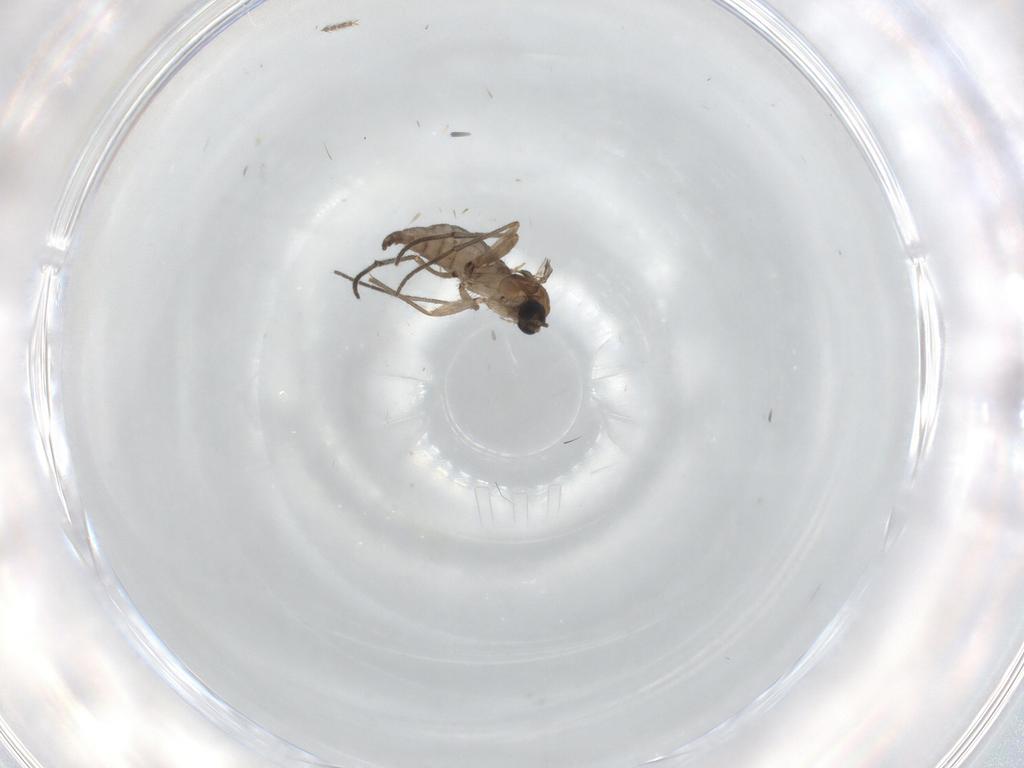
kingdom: Animalia
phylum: Arthropoda
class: Insecta
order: Diptera
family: Sciaridae
